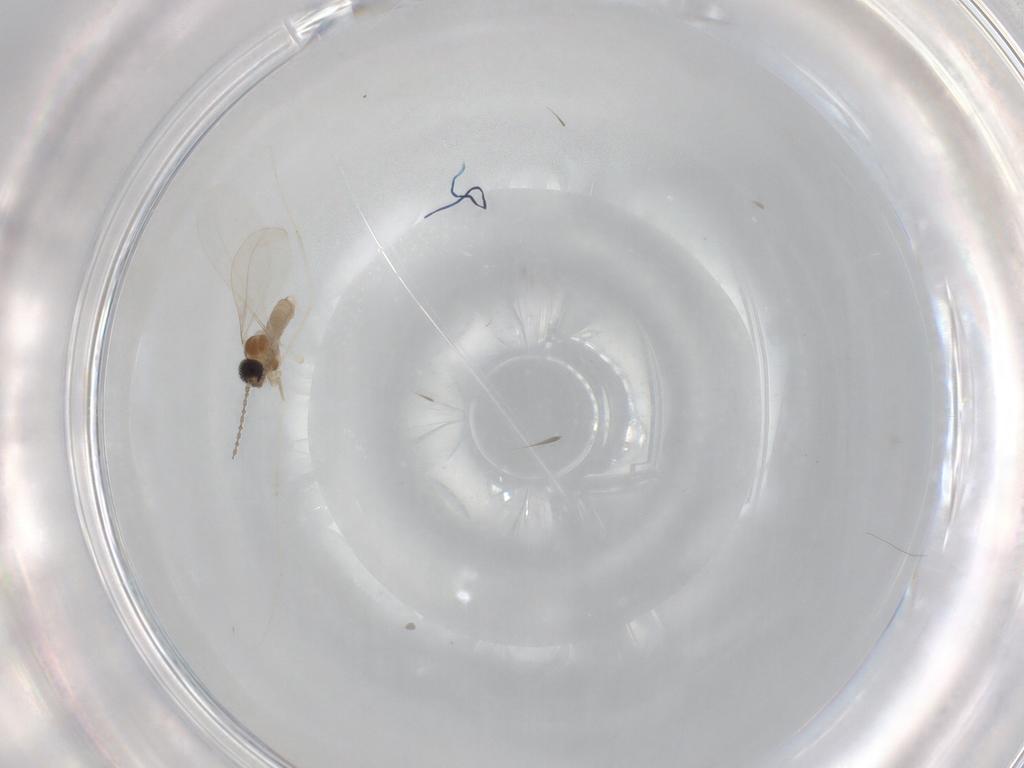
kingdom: Animalia
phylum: Arthropoda
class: Insecta
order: Diptera
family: Cecidomyiidae
